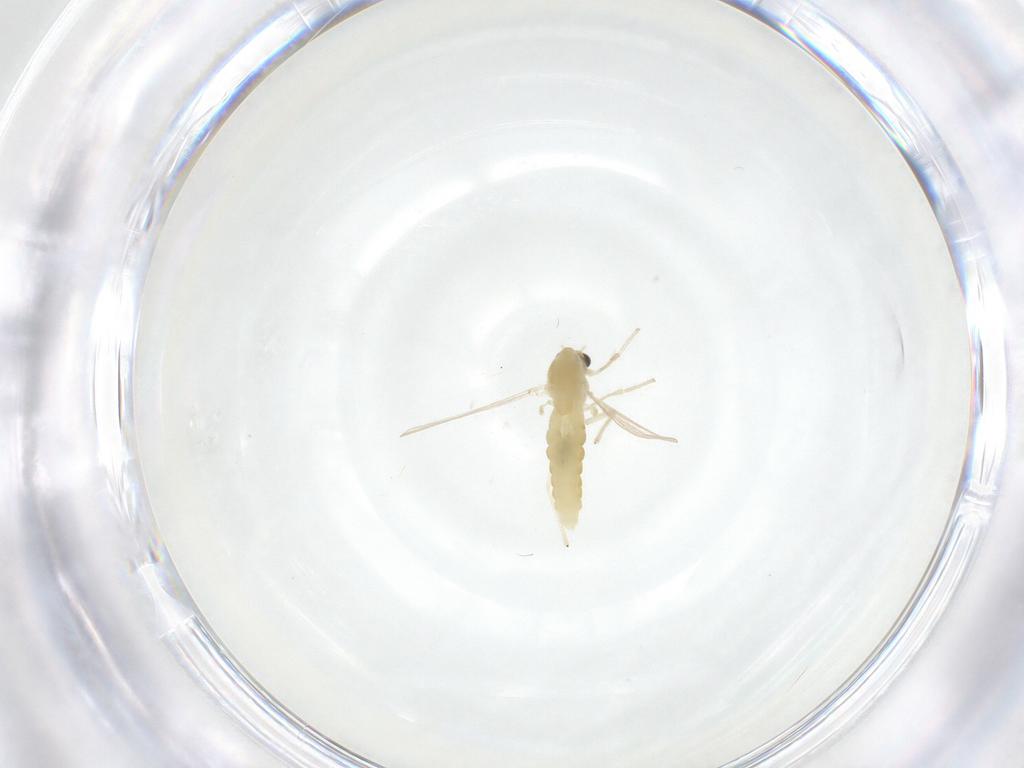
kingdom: Animalia
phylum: Arthropoda
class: Insecta
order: Diptera
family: Chironomidae
